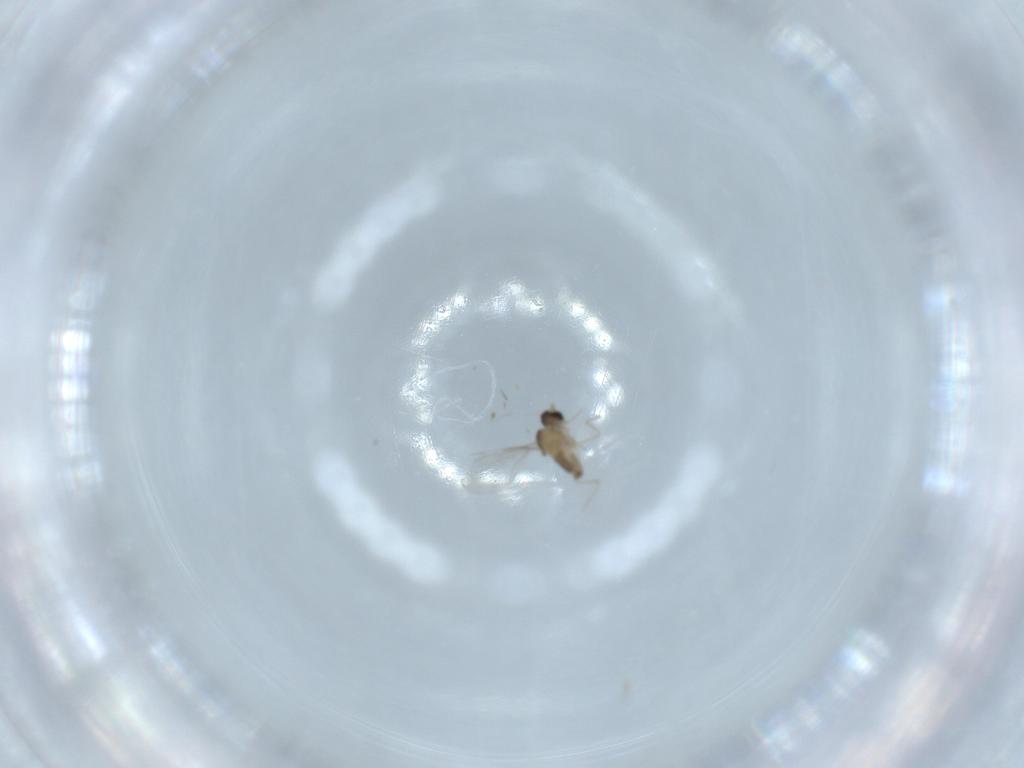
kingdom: Animalia
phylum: Arthropoda
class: Insecta
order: Diptera
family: Cecidomyiidae
